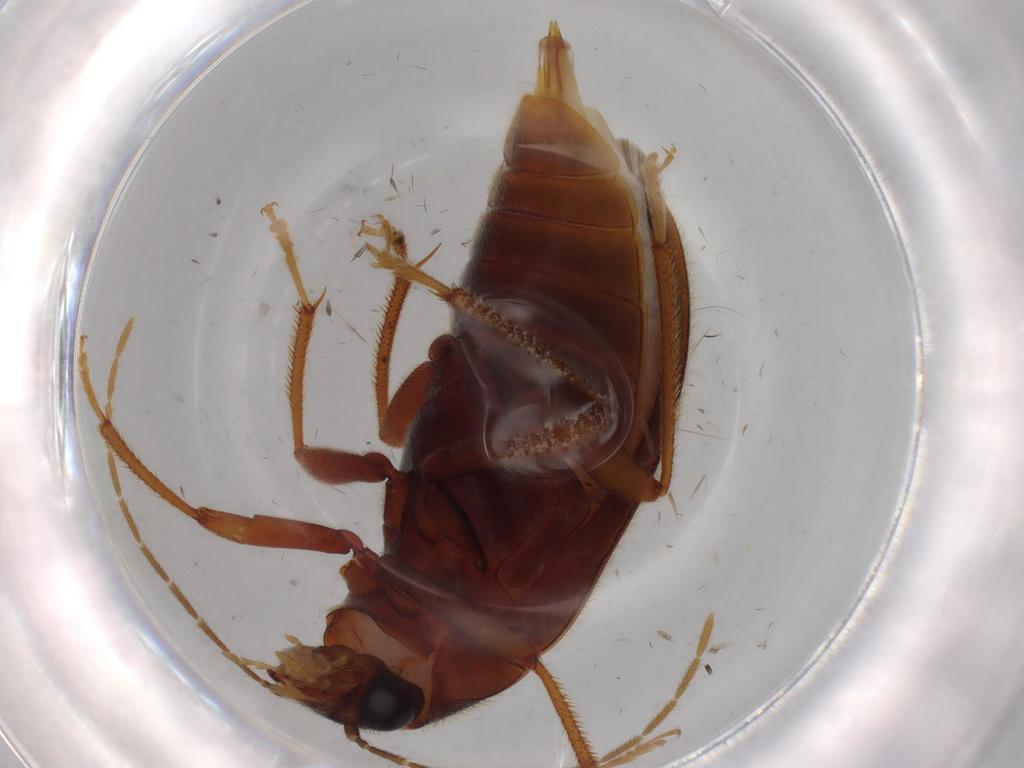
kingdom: Animalia
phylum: Arthropoda
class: Insecta
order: Coleoptera
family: Ptilodactylidae
